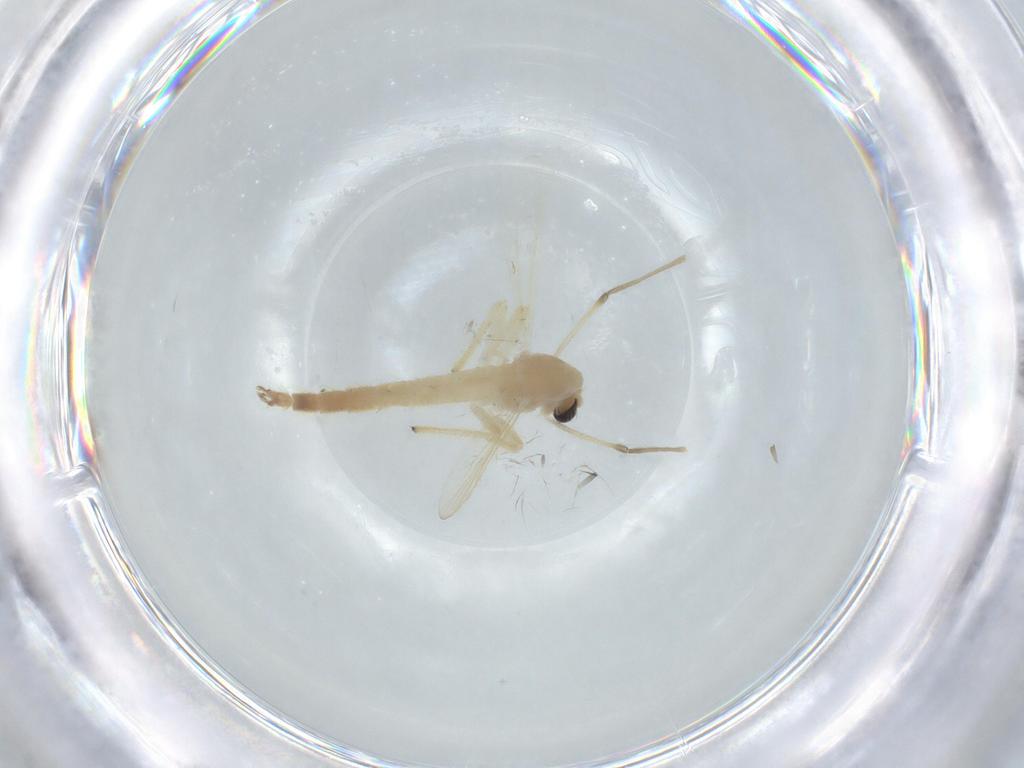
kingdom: Animalia
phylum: Arthropoda
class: Insecta
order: Diptera
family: Chironomidae
